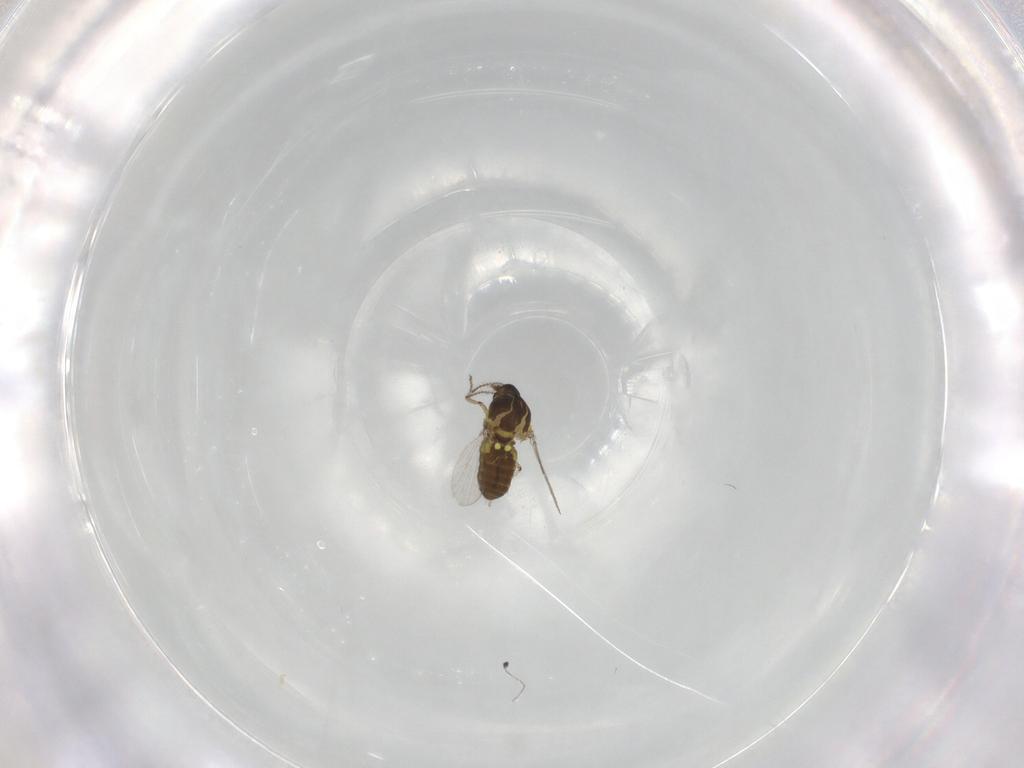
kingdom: Animalia
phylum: Arthropoda
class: Insecta
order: Diptera
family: Ceratopogonidae
